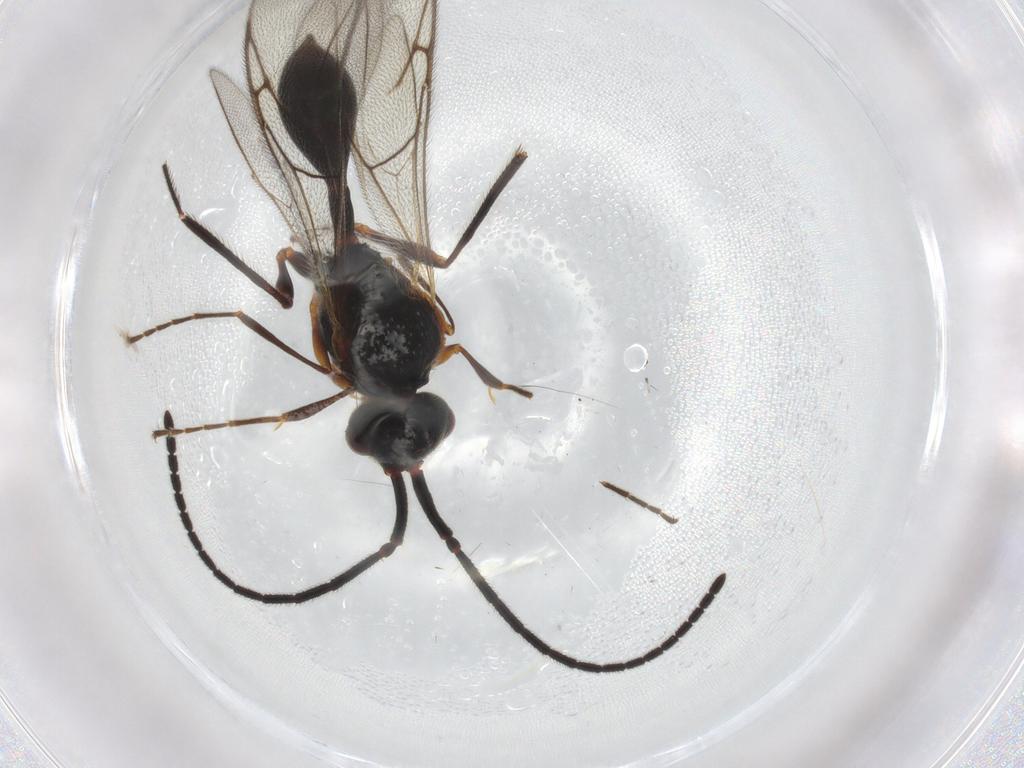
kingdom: Animalia
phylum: Arthropoda
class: Insecta
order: Hymenoptera
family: Diapriidae
